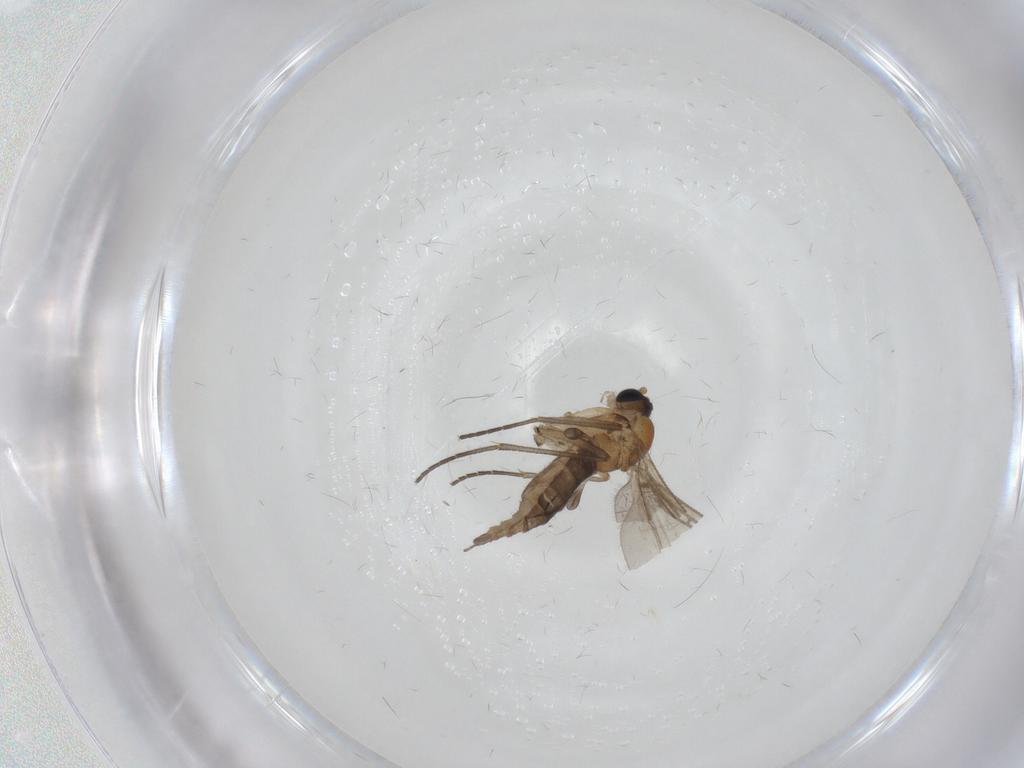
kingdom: Animalia
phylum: Arthropoda
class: Insecta
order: Diptera
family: Sciaridae
